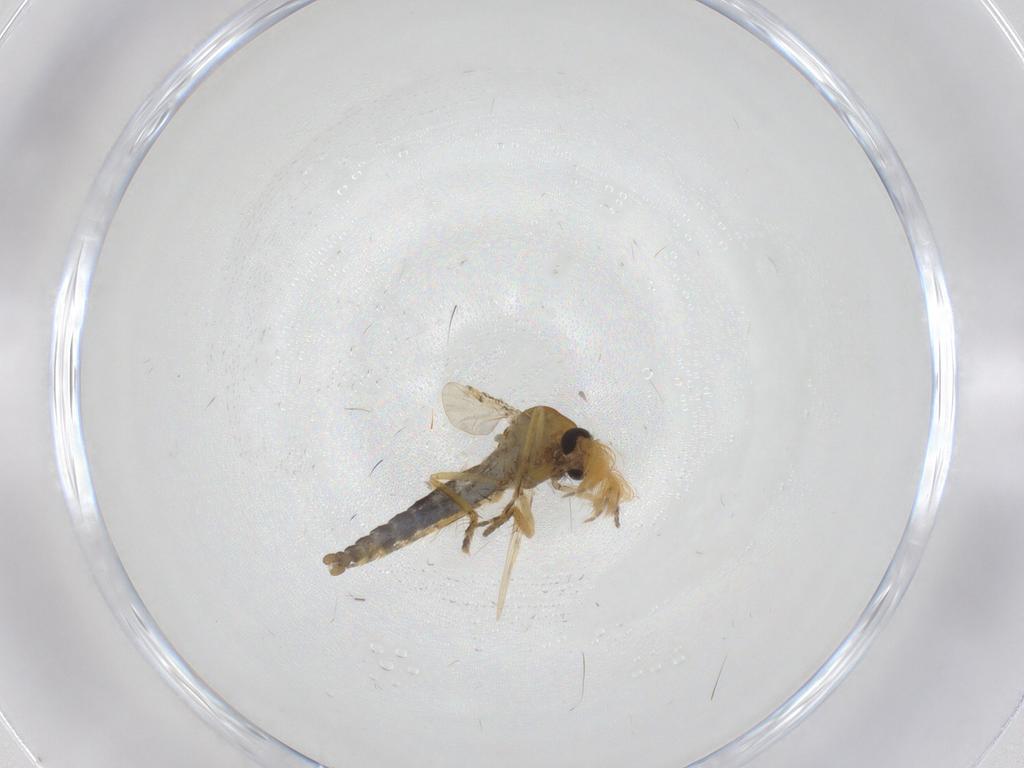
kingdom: Animalia
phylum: Arthropoda
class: Insecta
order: Diptera
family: Ceratopogonidae
